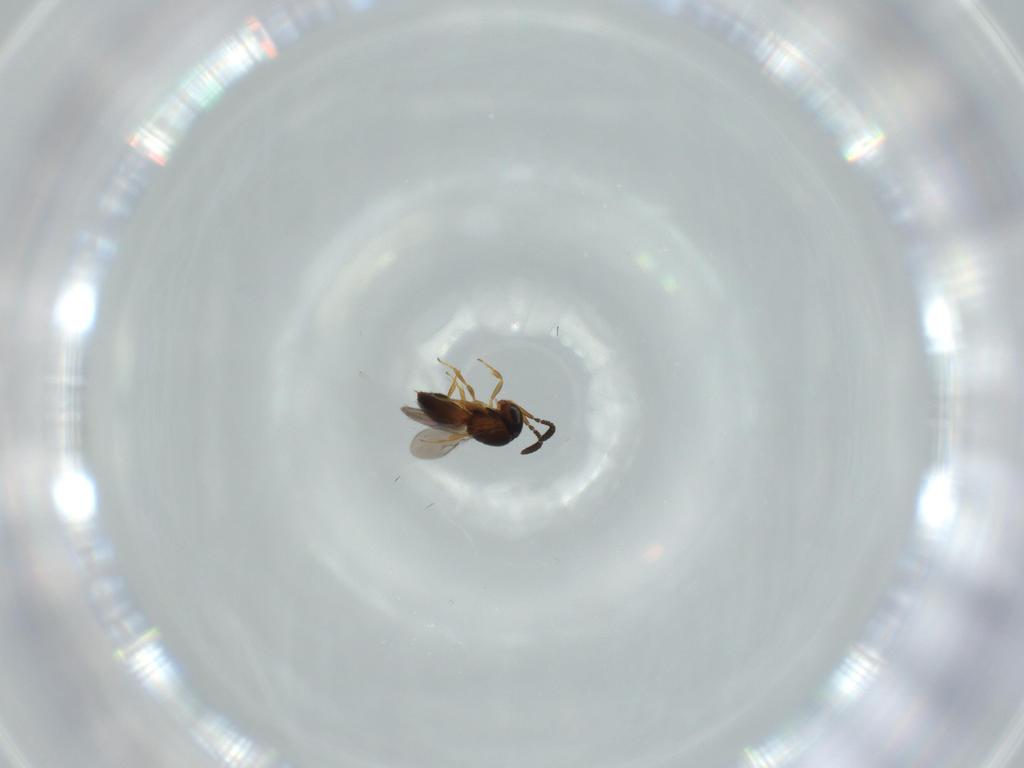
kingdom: Animalia
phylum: Arthropoda
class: Insecta
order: Hymenoptera
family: Scelionidae
